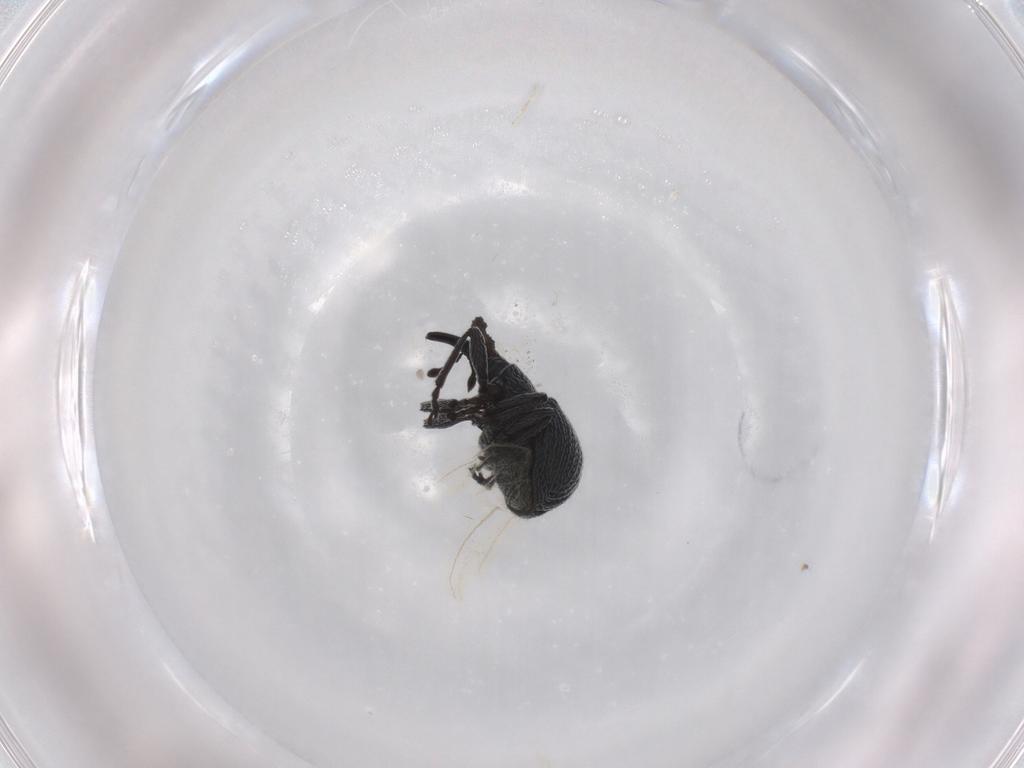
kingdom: Animalia
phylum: Arthropoda
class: Insecta
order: Coleoptera
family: Brentidae
